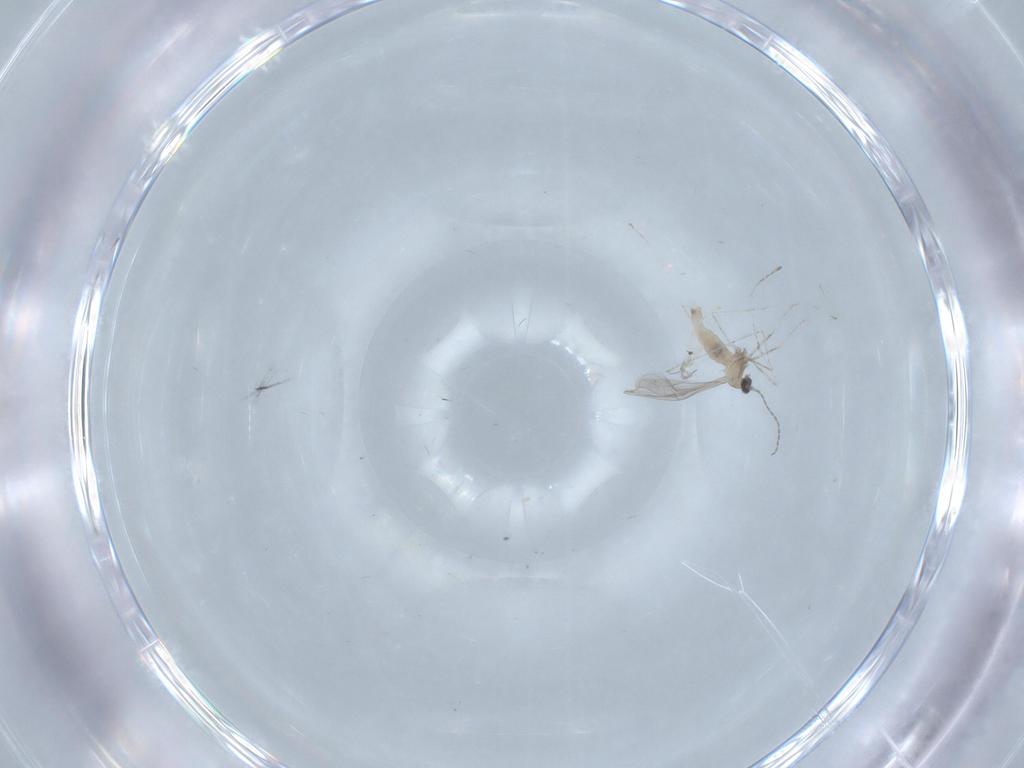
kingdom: Animalia
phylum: Arthropoda
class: Insecta
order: Diptera
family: Cecidomyiidae
